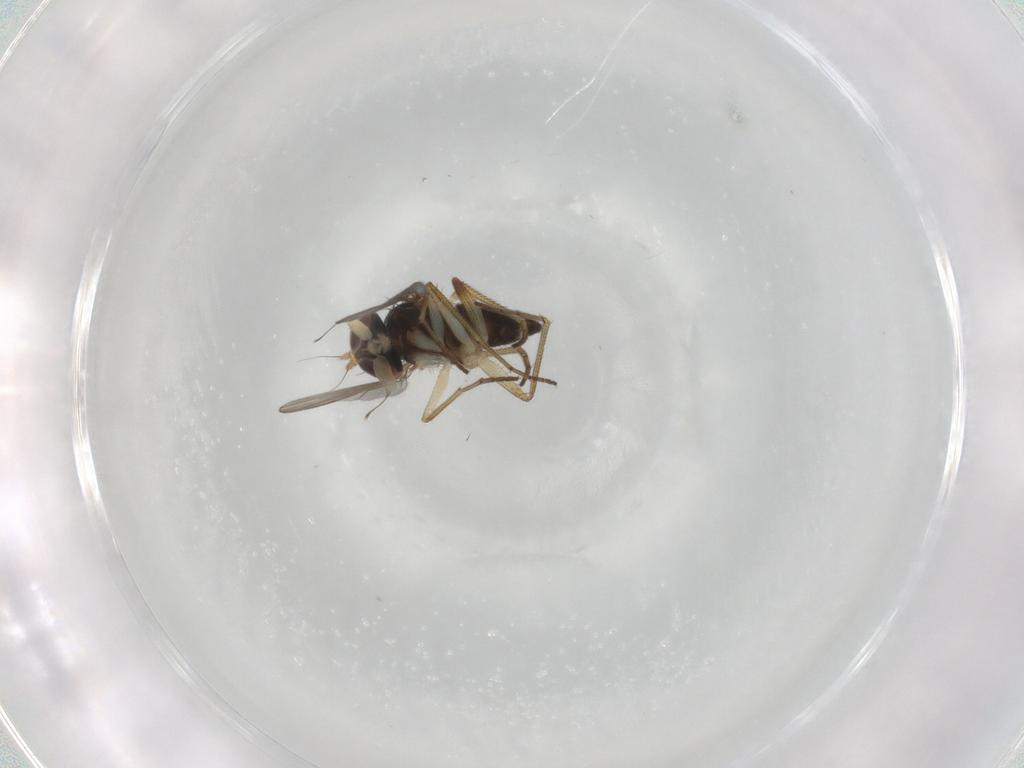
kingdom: Animalia
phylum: Arthropoda
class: Insecta
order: Diptera
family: Dolichopodidae
